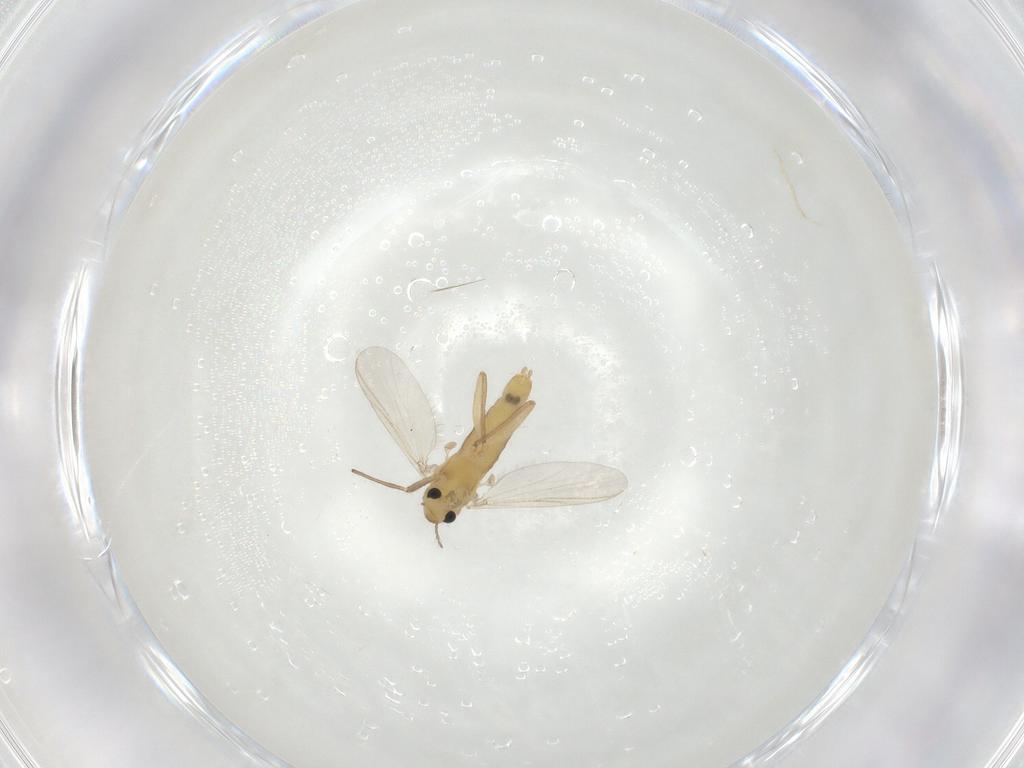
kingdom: Animalia
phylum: Arthropoda
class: Insecta
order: Diptera
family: Chironomidae
